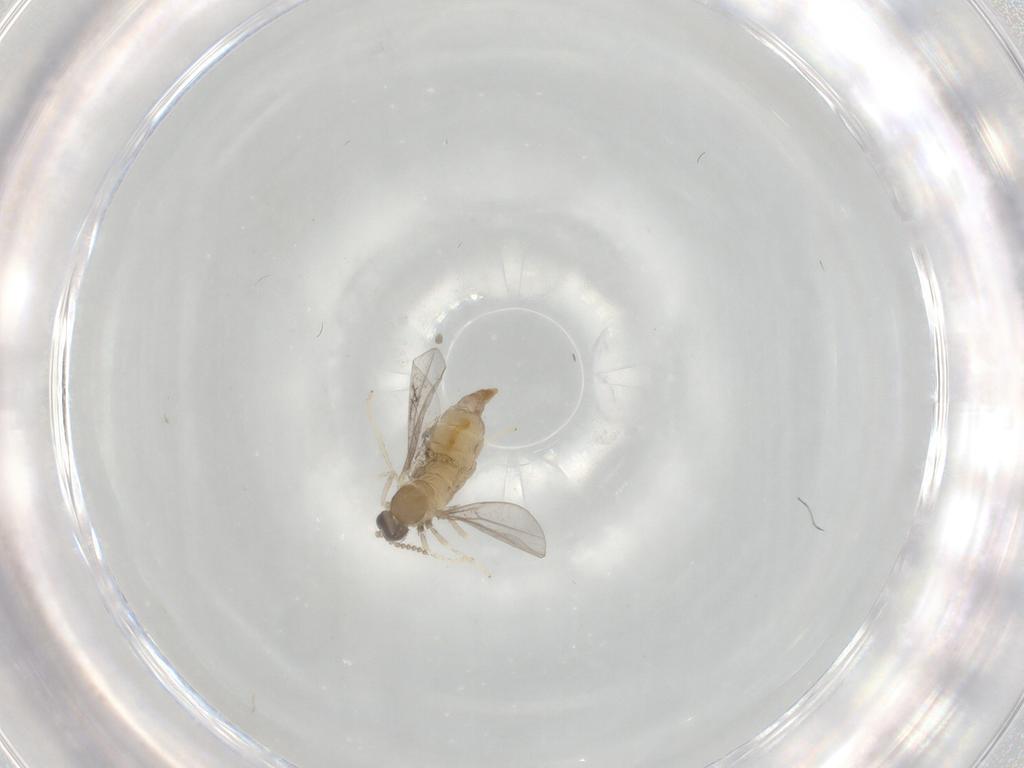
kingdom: Animalia
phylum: Arthropoda
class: Insecta
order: Diptera
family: Cecidomyiidae
